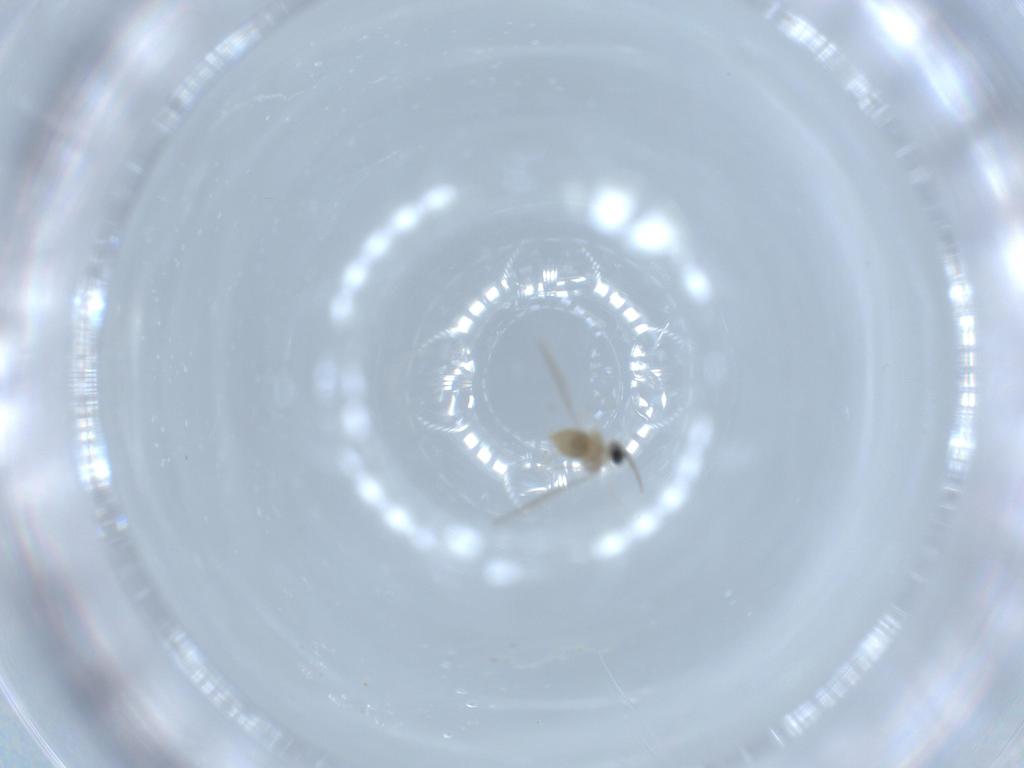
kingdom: Animalia
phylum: Arthropoda
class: Insecta
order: Diptera
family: Cecidomyiidae
